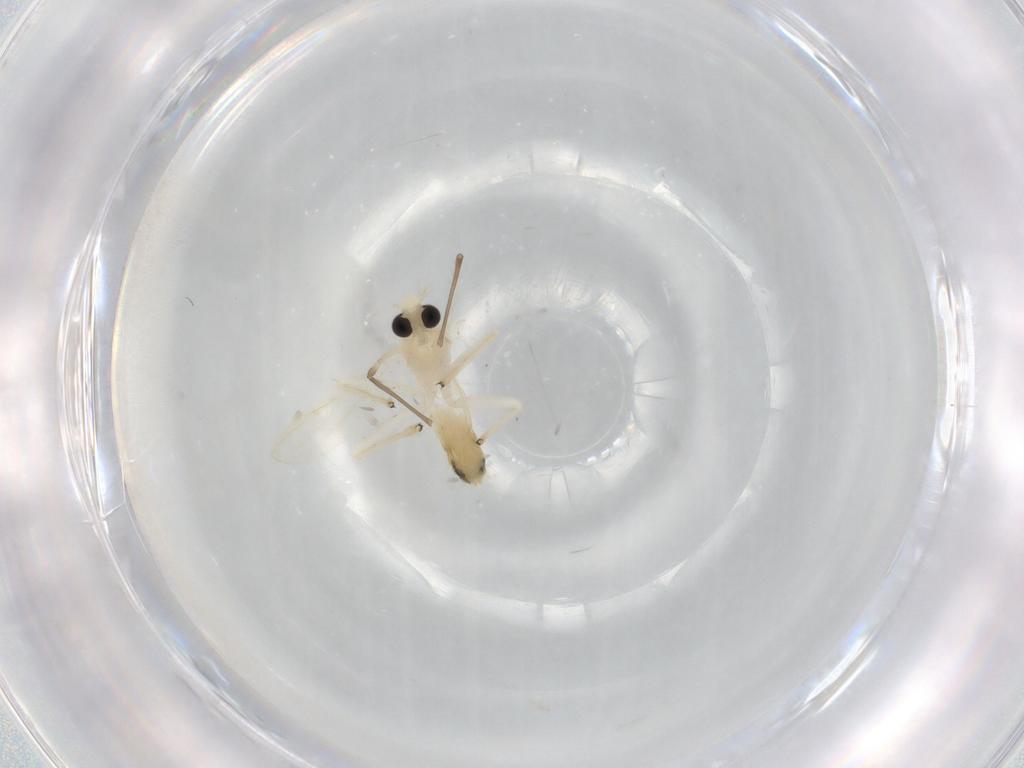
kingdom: Animalia
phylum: Arthropoda
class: Insecta
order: Diptera
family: Chironomidae
